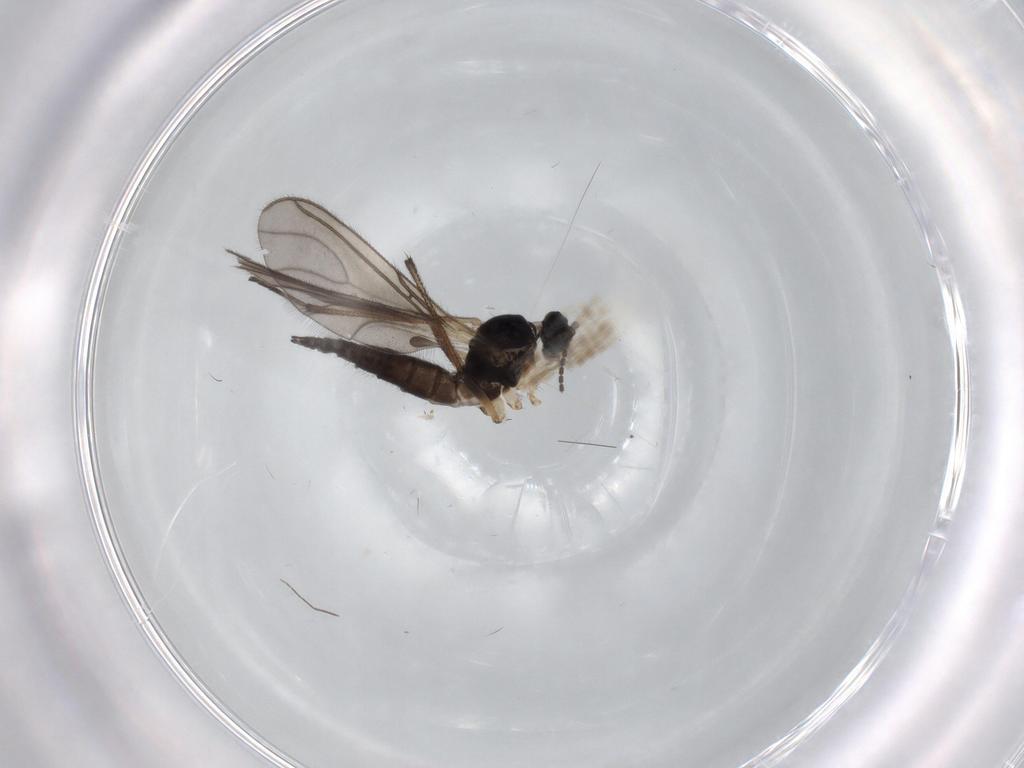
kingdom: Animalia
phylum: Arthropoda
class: Insecta
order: Diptera
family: Sciaridae
